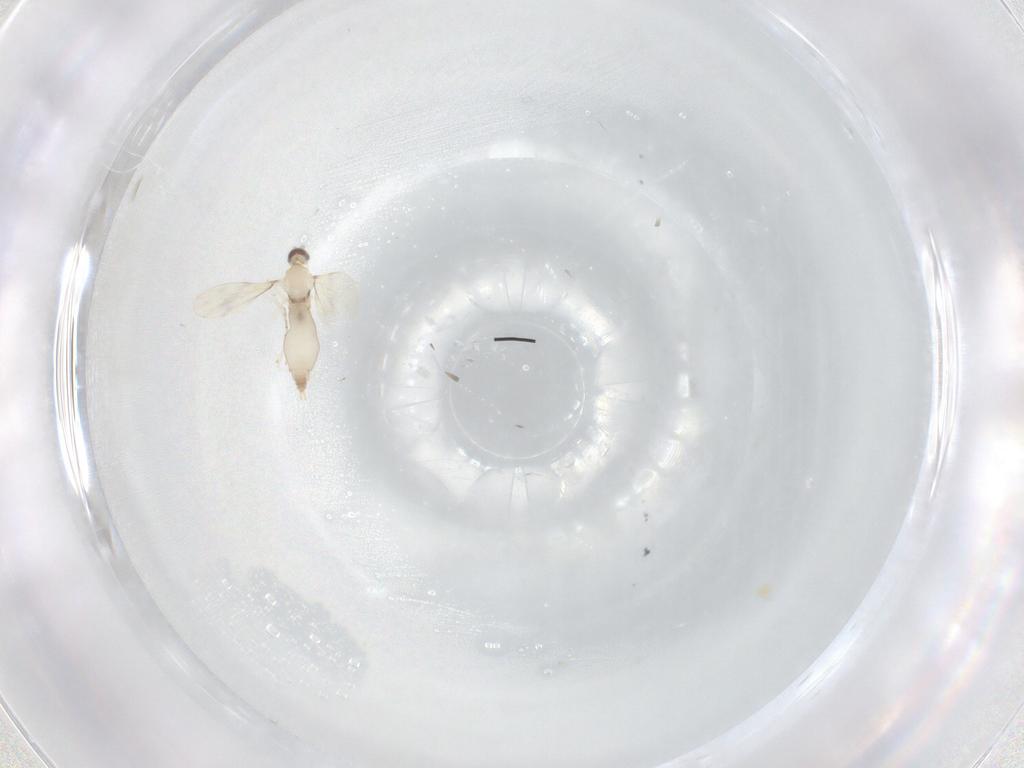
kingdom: Animalia
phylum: Arthropoda
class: Insecta
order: Diptera
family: Cecidomyiidae
